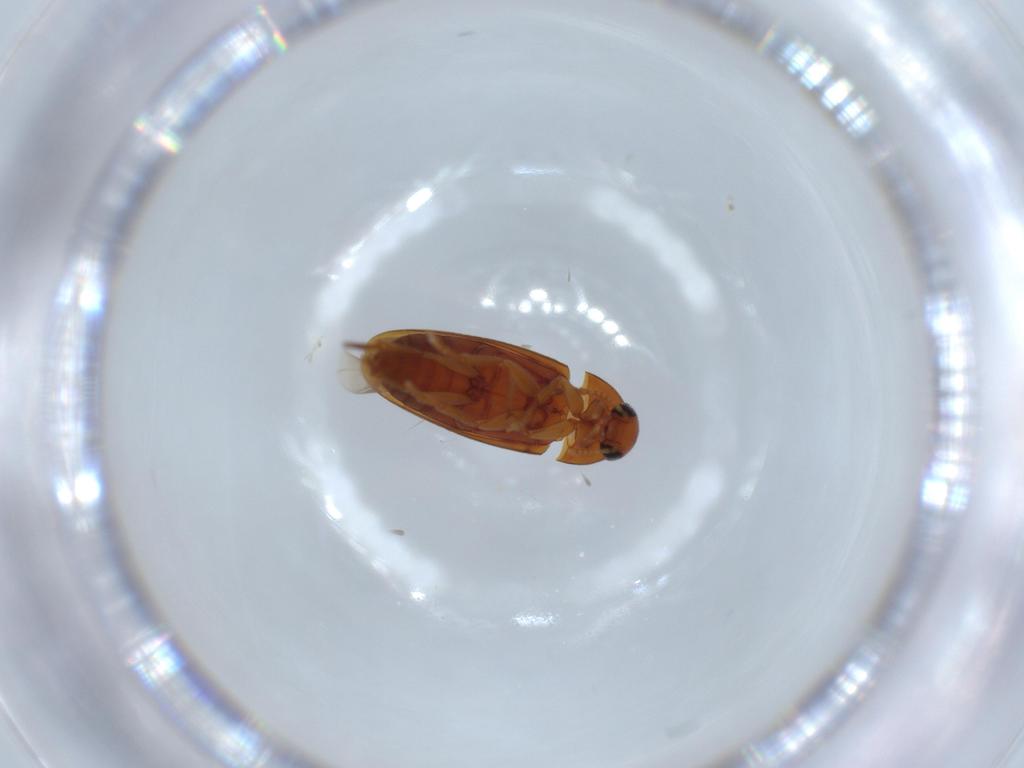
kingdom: Animalia
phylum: Arthropoda
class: Insecta
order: Coleoptera
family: Scraptiidae
